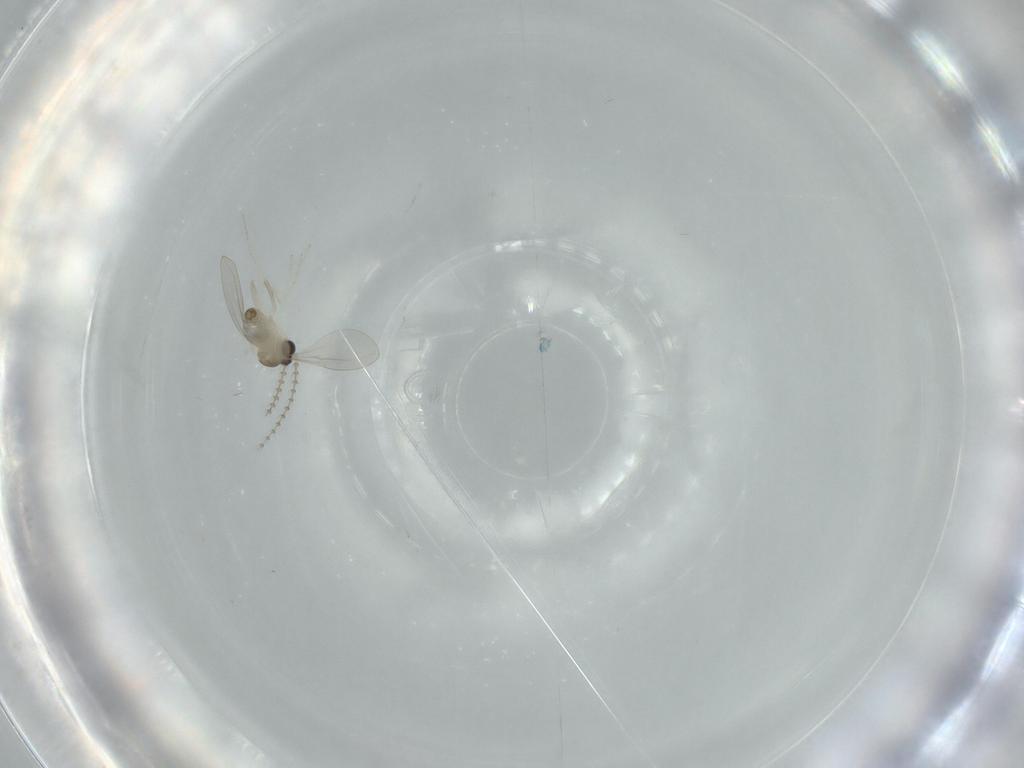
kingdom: Animalia
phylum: Arthropoda
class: Insecta
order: Diptera
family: Cecidomyiidae
